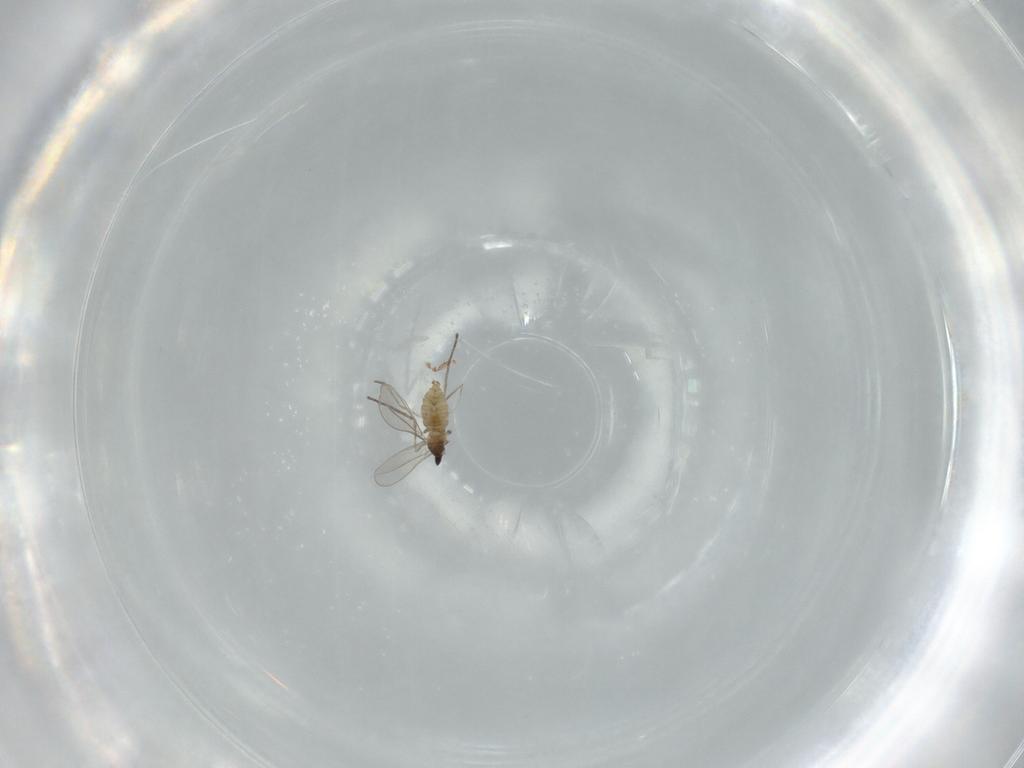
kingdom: Animalia
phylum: Arthropoda
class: Insecta
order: Diptera
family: Cecidomyiidae
